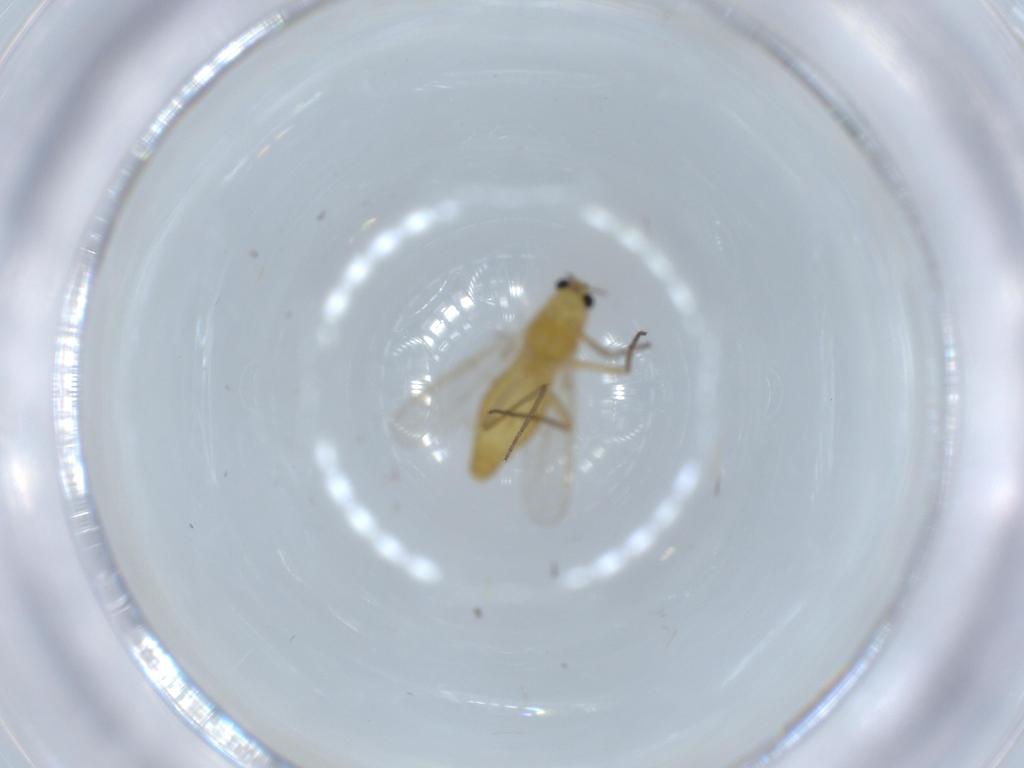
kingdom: Animalia
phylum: Arthropoda
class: Insecta
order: Diptera
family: Chironomidae
